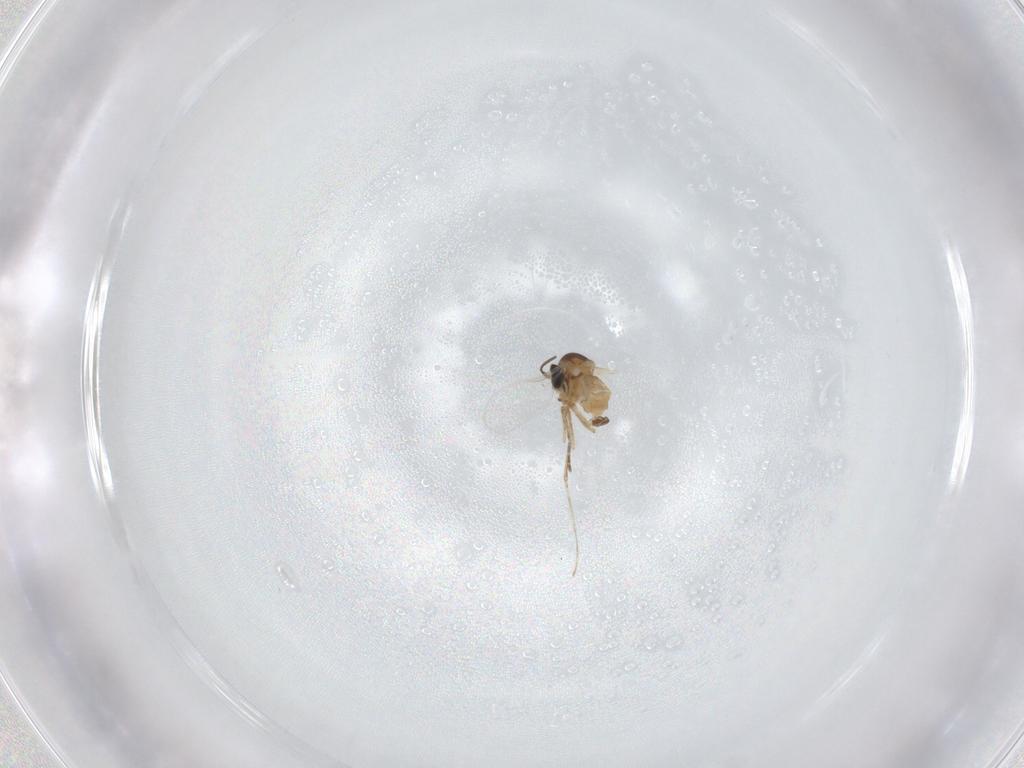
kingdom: Animalia
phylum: Arthropoda
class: Insecta
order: Diptera
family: Cecidomyiidae
